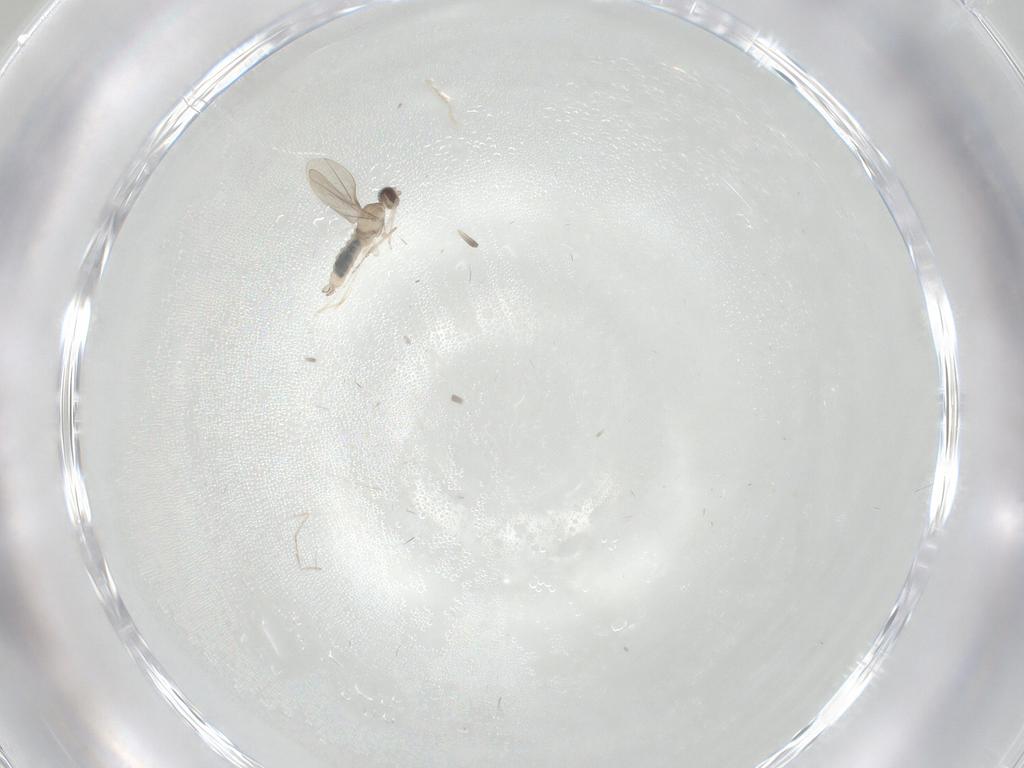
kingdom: Animalia
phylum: Arthropoda
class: Insecta
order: Diptera
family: Cecidomyiidae
